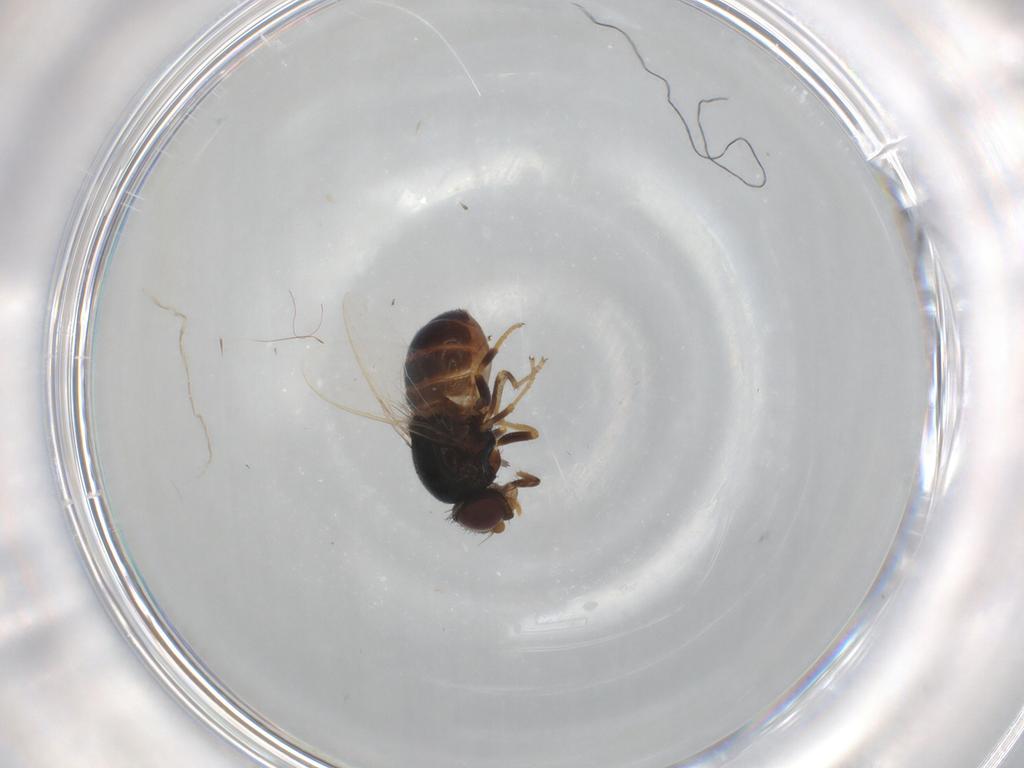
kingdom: Animalia
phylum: Arthropoda
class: Insecta
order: Diptera
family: Chloropidae
